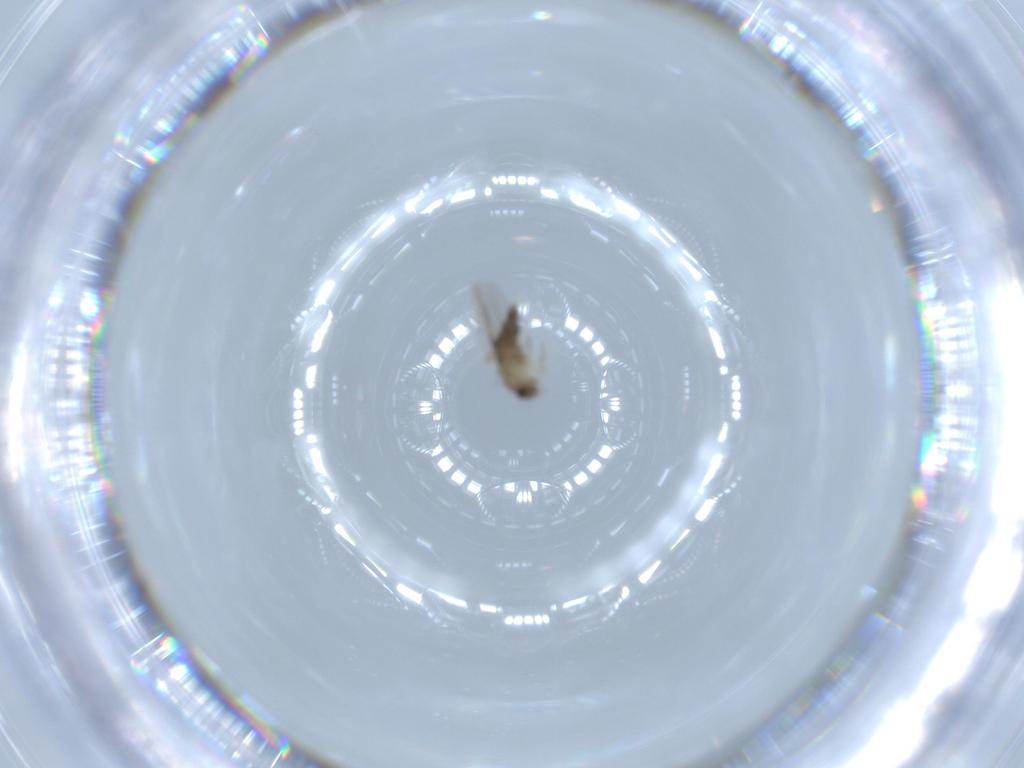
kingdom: Animalia
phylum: Arthropoda
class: Insecta
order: Diptera
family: Phoridae
